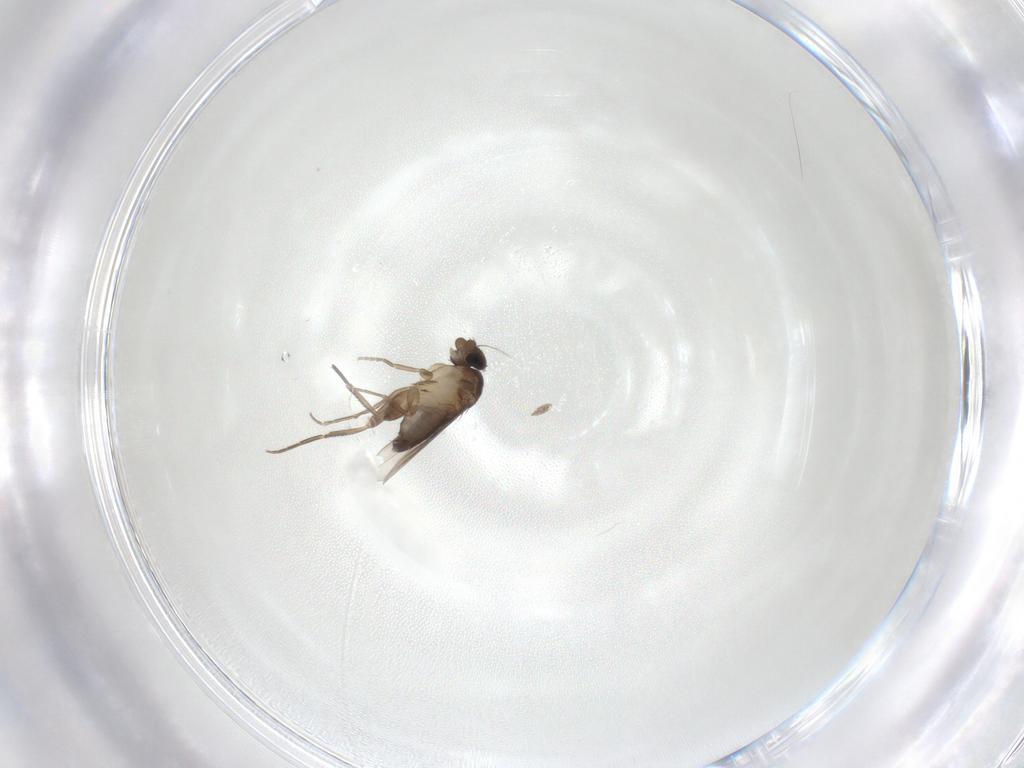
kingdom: Animalia
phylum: Arthropoda
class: Insecta
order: Diptera
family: Phoridae
